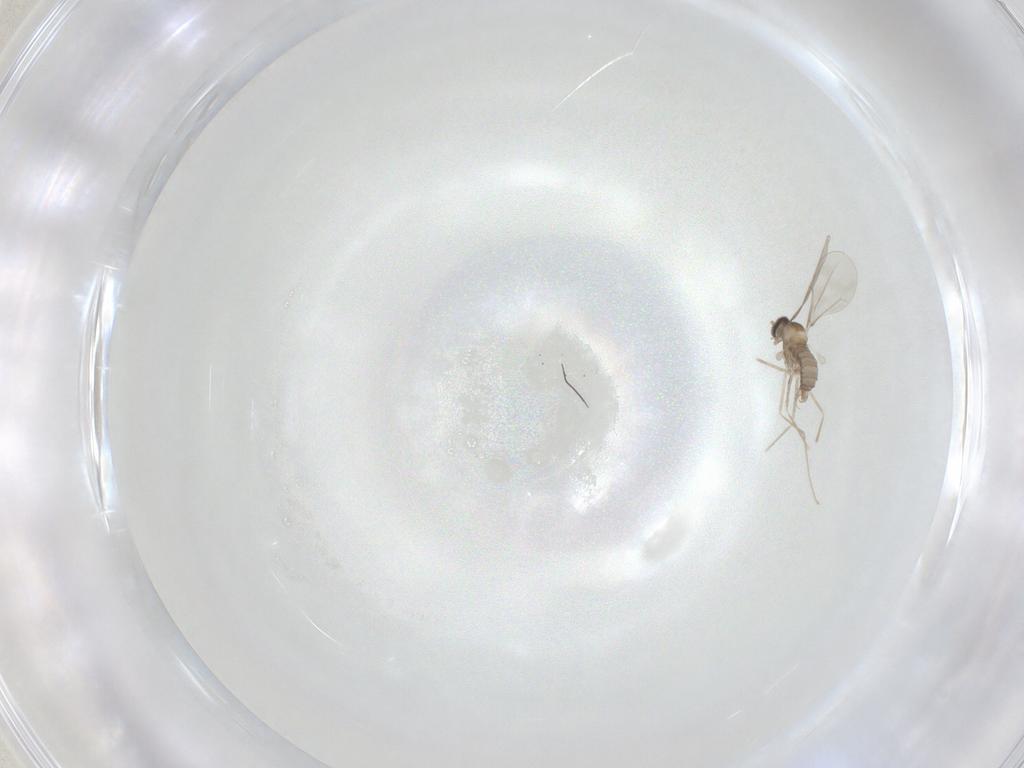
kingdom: Animalia
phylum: Arthropoda
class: Insecta
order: Diptera
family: Cecidomyiidae
